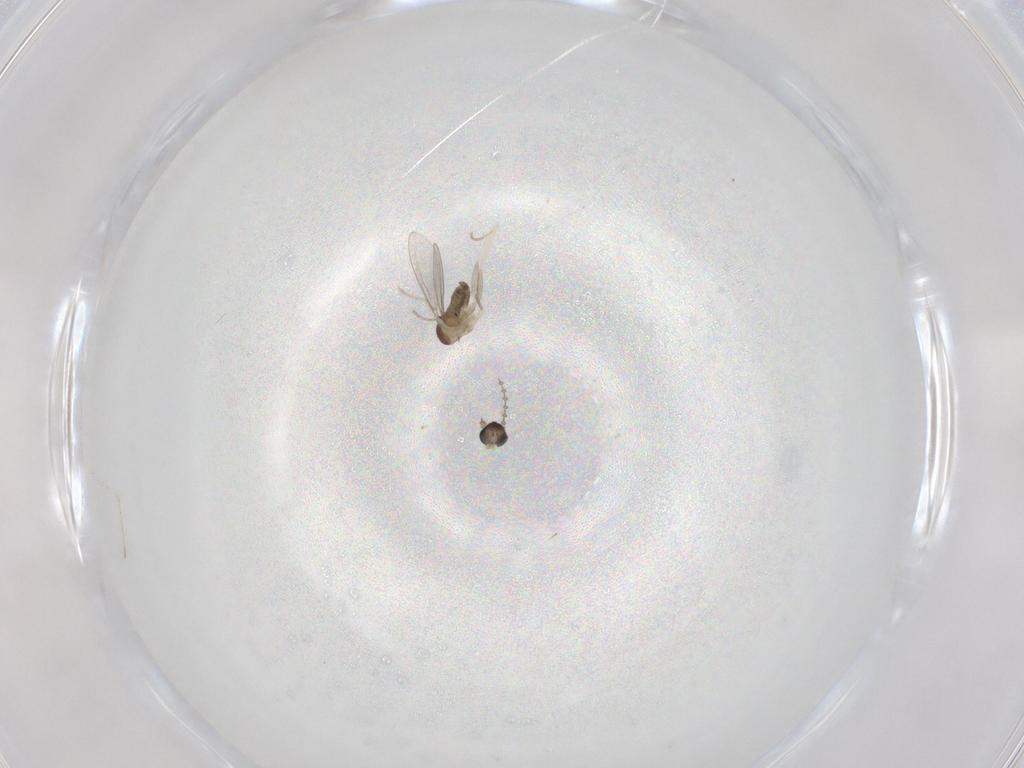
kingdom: Animalia
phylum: Arthropoda
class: Insecta
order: Diptera
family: Cecidomyiidae
